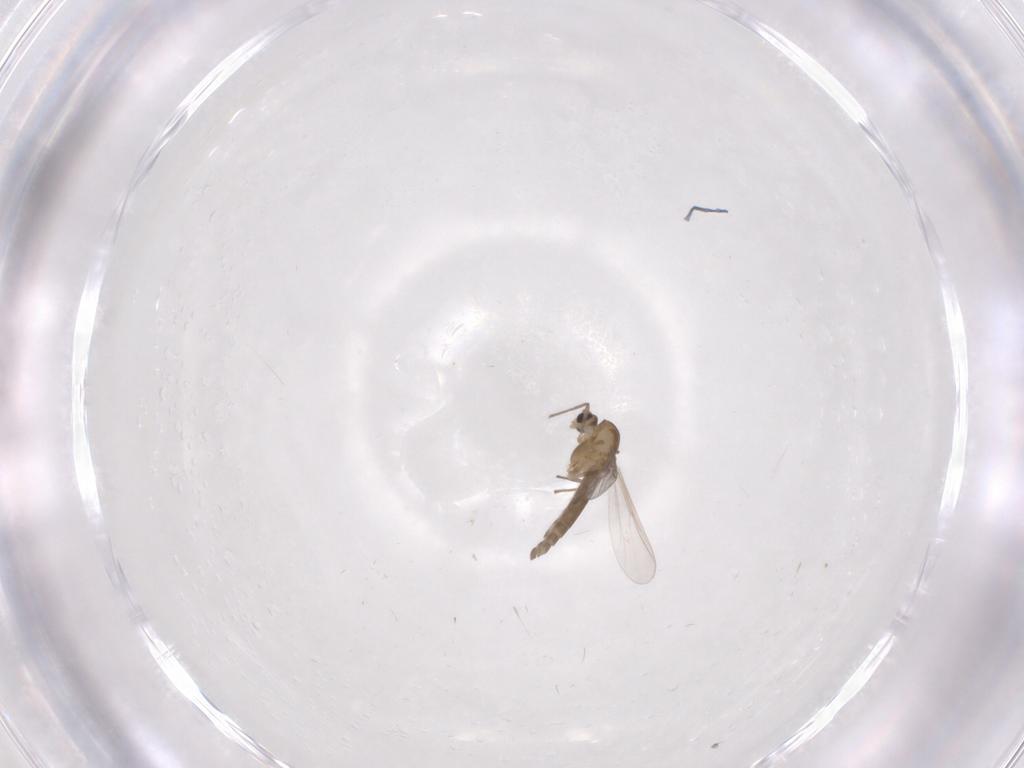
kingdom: Animalia
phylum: Arthropoda
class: Insecta
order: Diptera
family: Chironomidae
